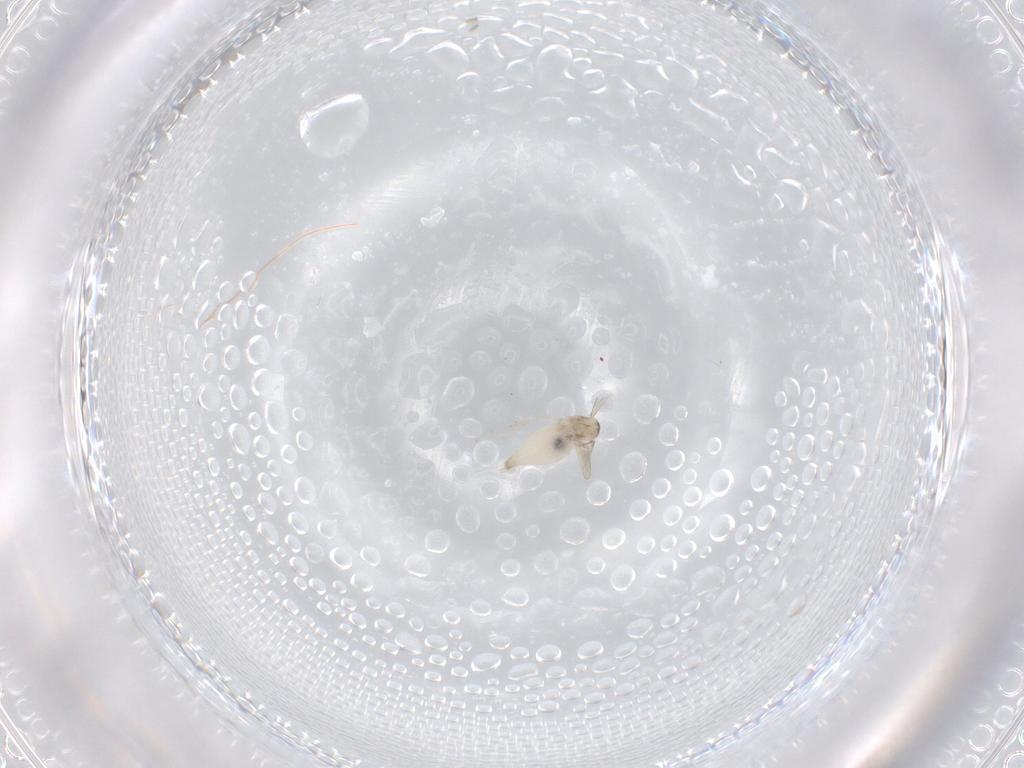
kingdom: Animalia
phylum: Arthropoda
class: Insecta
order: Diptera
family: Cecidomyiidae
